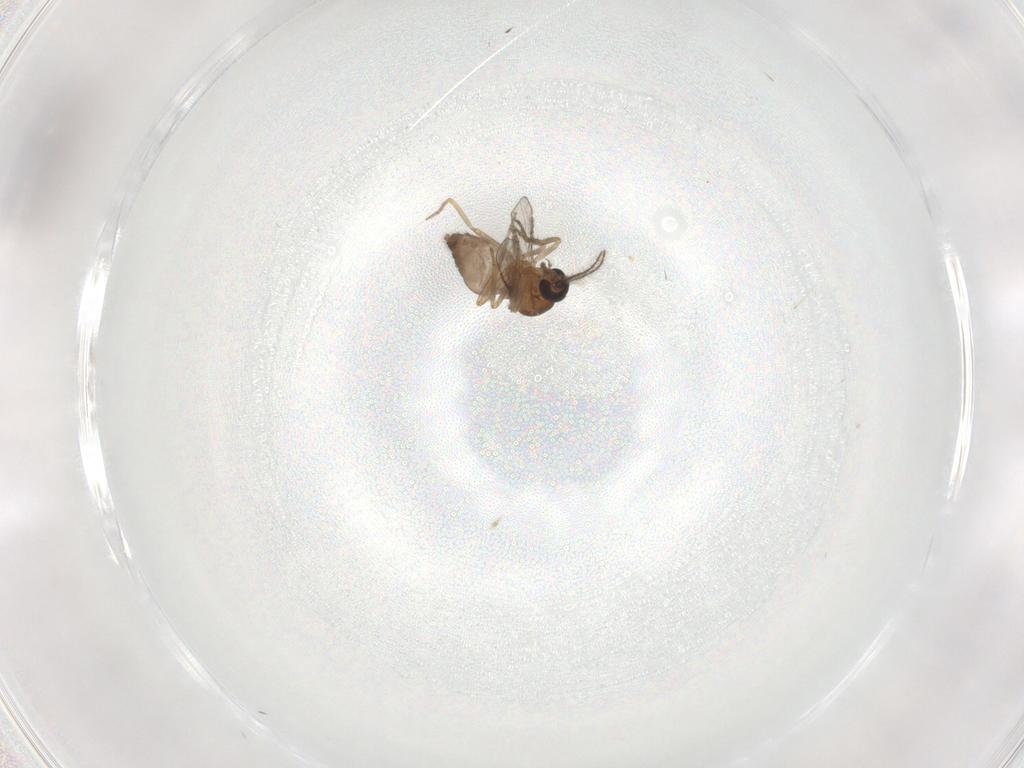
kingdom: Animalia
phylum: Arthropoda
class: Insecta
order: Diptera
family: Ceratopogonidae
